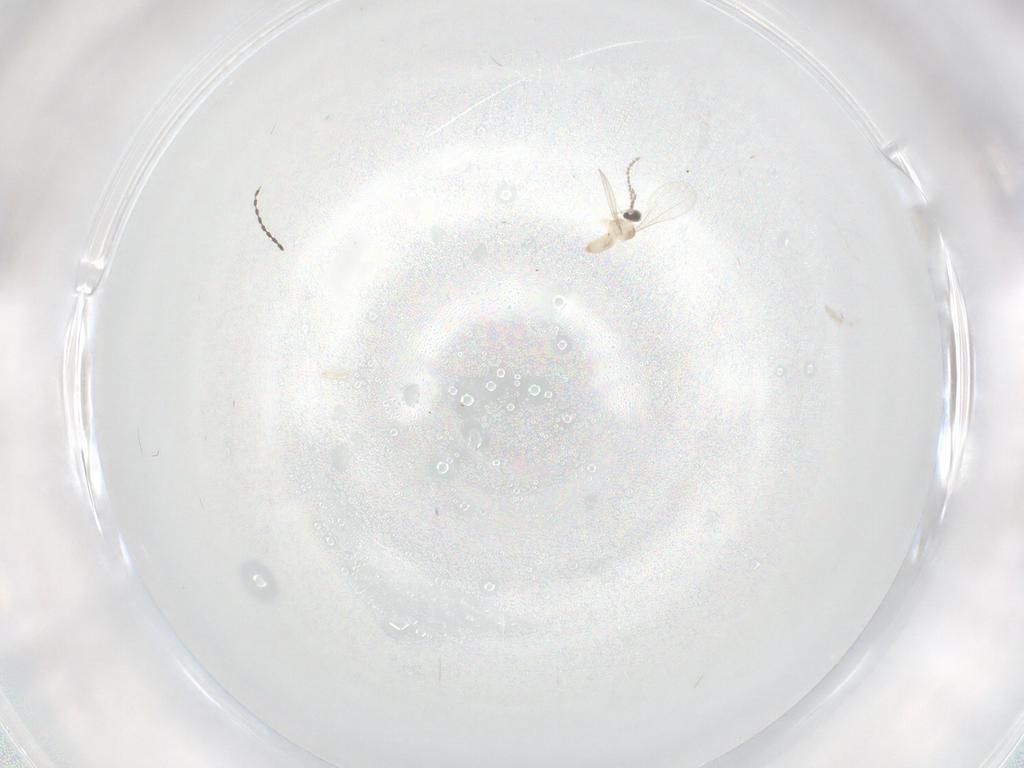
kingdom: Animalia
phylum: Arthropoda
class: Insecta
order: Diptera
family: Cecidomyiidae
